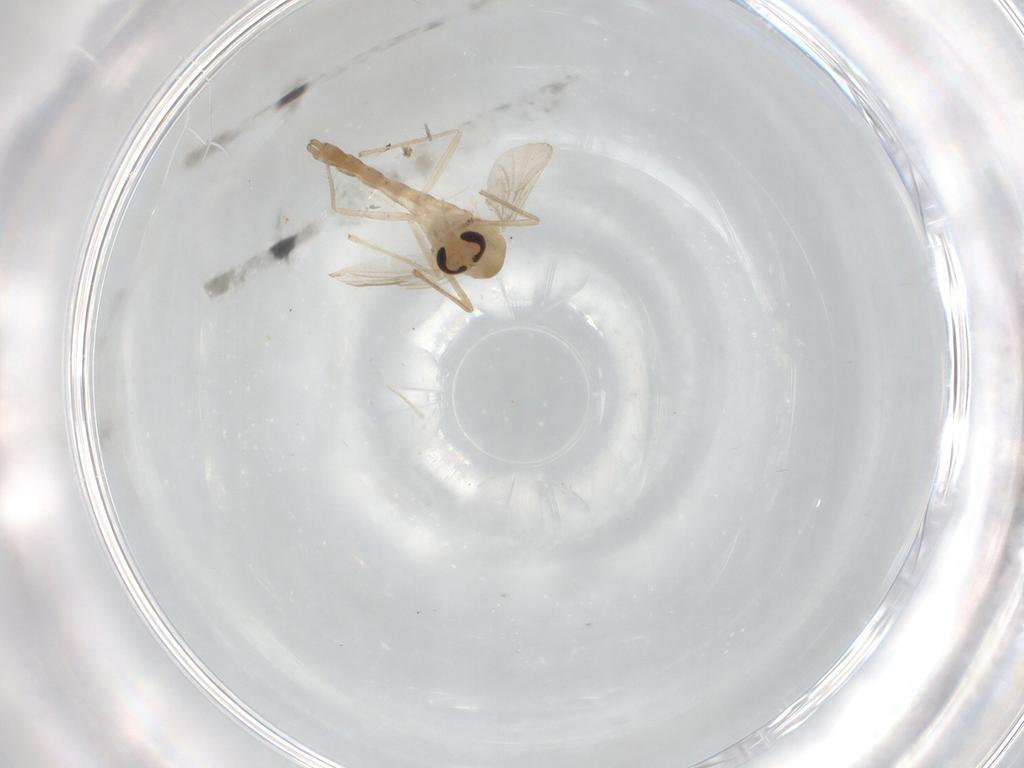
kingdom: Animalia
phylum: Arthropoda
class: Insecta
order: Diptera
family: Chironomidae
